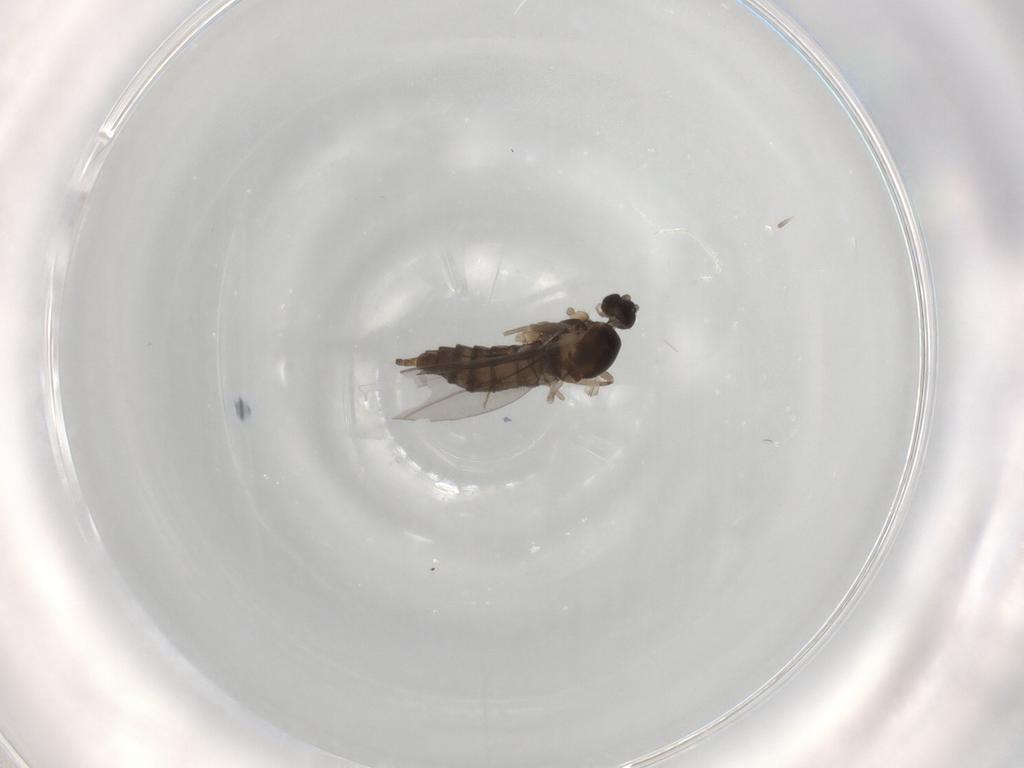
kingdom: Animalia
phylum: Arthropoda
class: Insecta
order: Diptera
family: Cecidomyiidae
